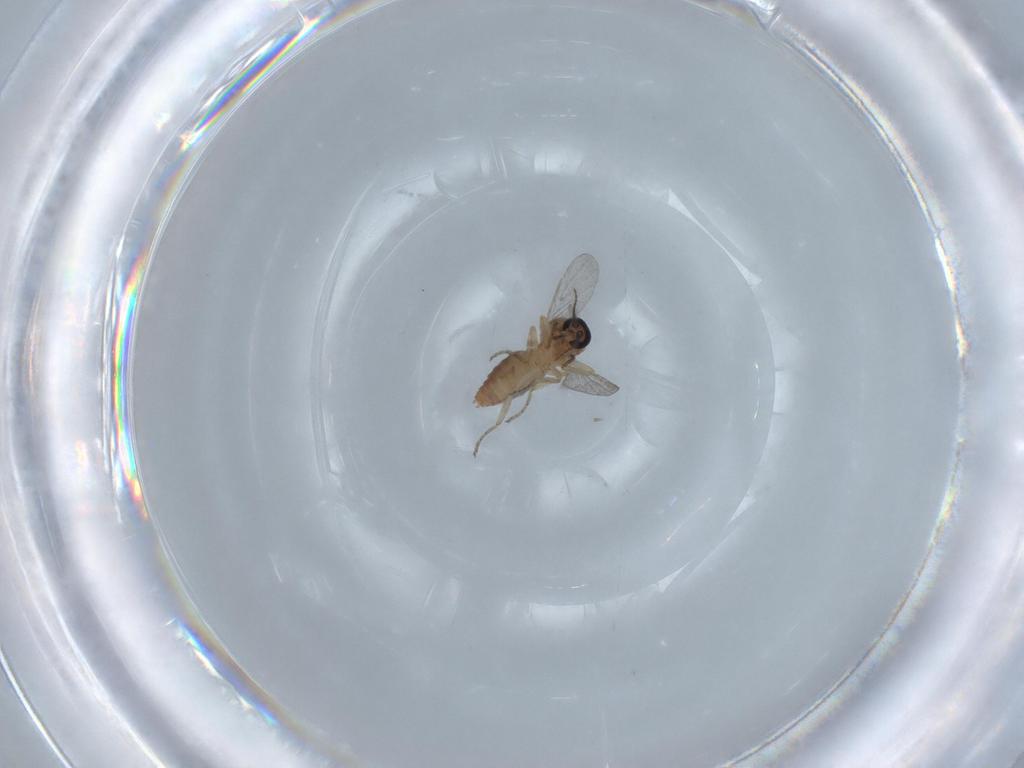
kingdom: Animalia
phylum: Arthropoda
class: Insecta
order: Diptera
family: Ceratopogonidae
